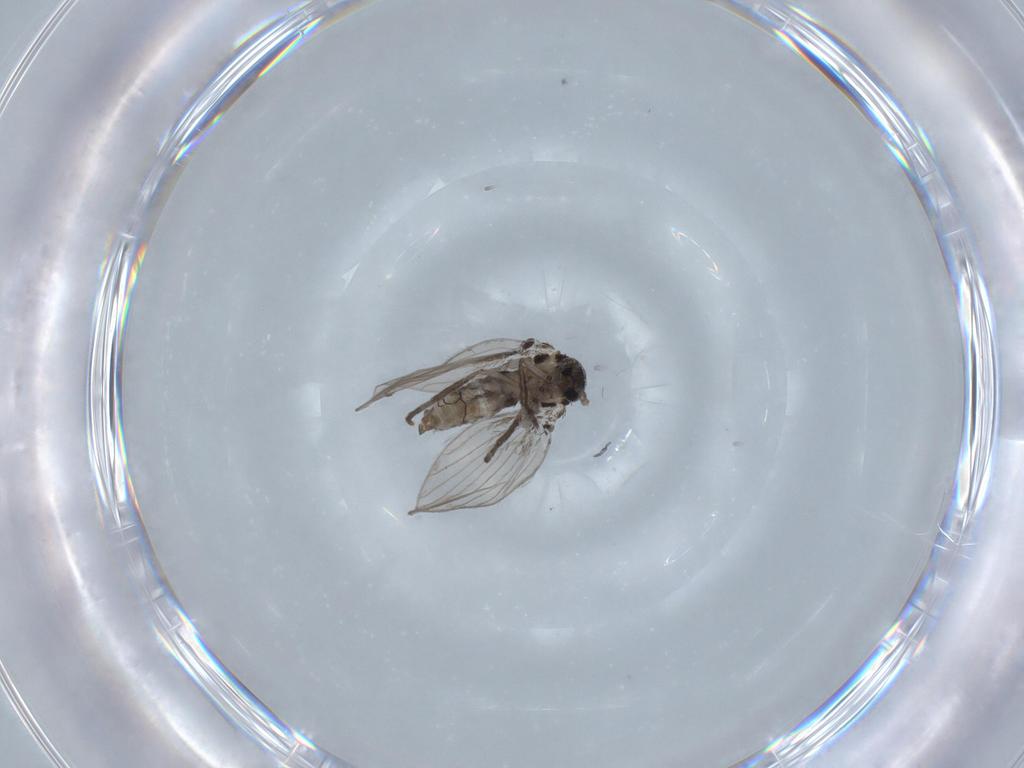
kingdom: Animalia
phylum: Arthropoda
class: Insecta
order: Diptera
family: Psychodidae
